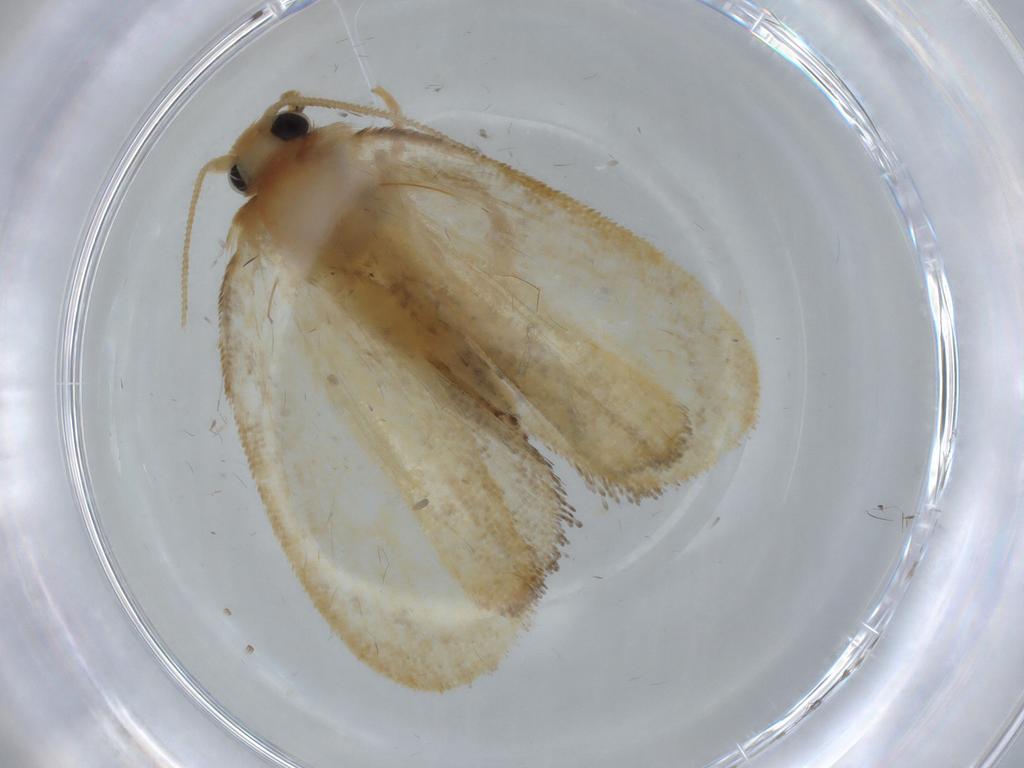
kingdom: Animalia
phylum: Arthropoda
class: Insecta
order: Lepidoptera
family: Psychidae
